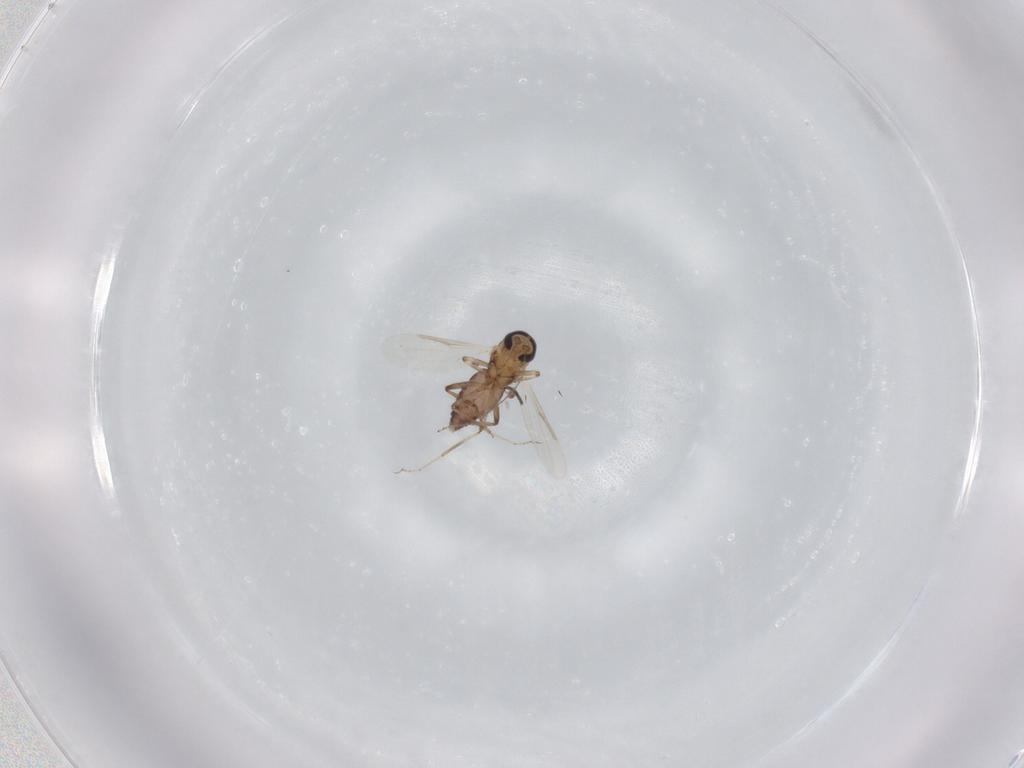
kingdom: Animalia
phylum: Arthropoda
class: Insecta
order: Diptera
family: Ceratopogonidae
